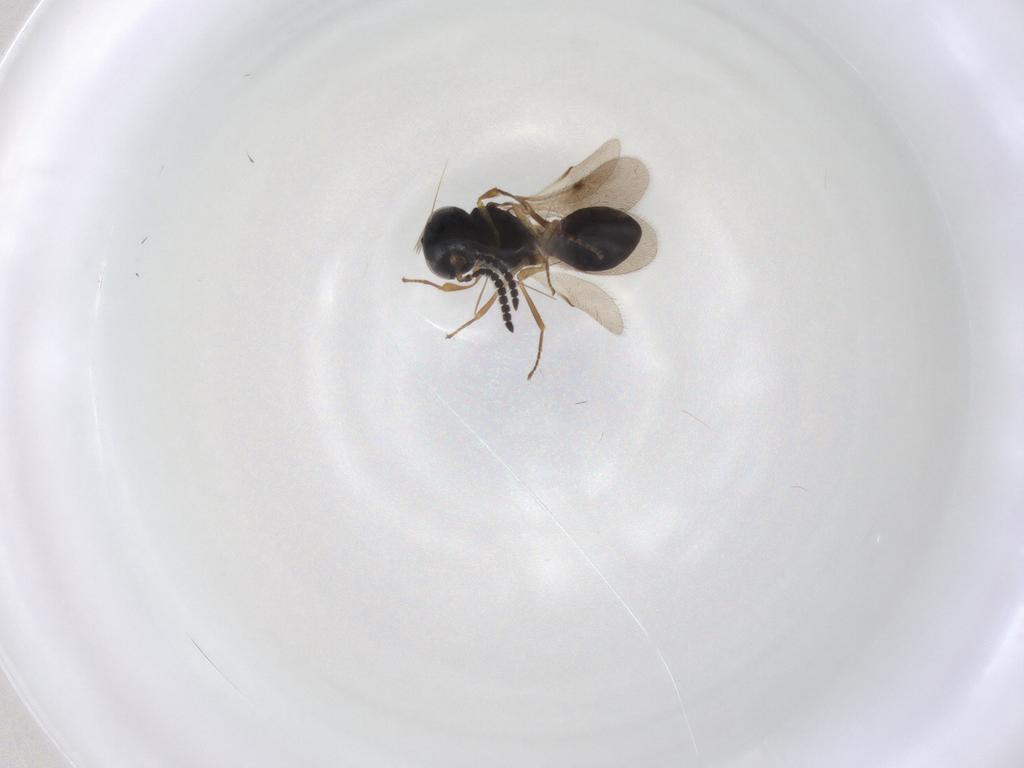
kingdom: Animalia
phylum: Arthropoda
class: Insecta
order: Hymenoptera
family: Scelionidae
